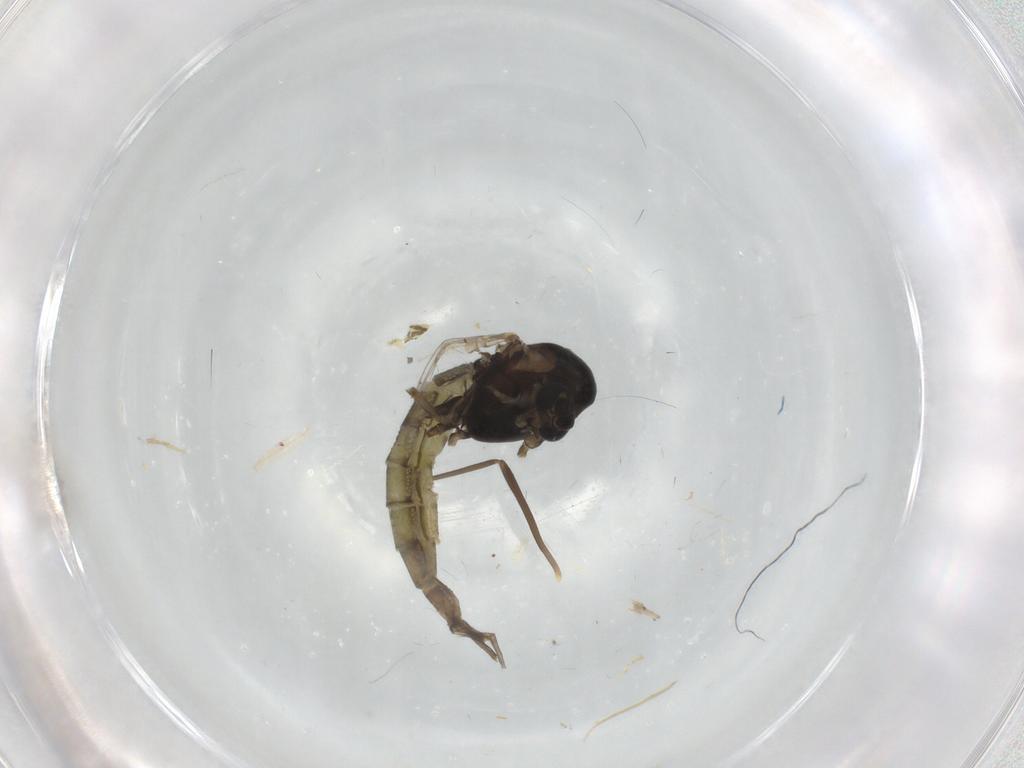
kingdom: Animalia
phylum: Arthropoda
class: Insecta
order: Diptera
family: Chironomidae
